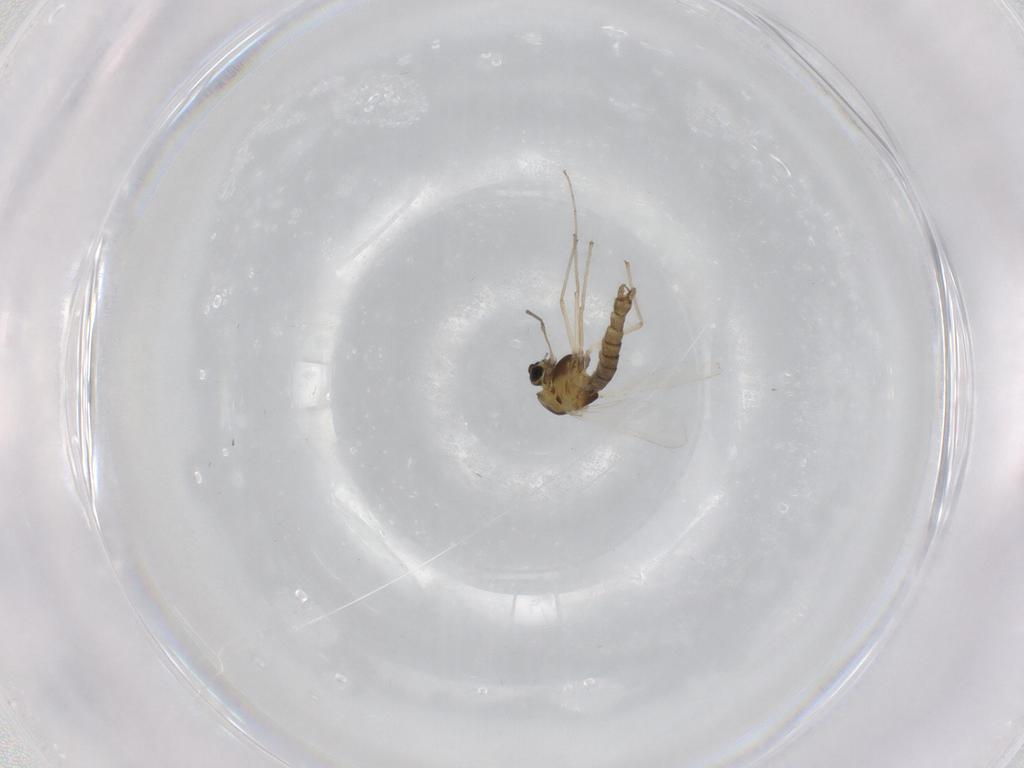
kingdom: Animalia
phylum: Arthropoda
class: Insecta
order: Diptera
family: Chironomidae
